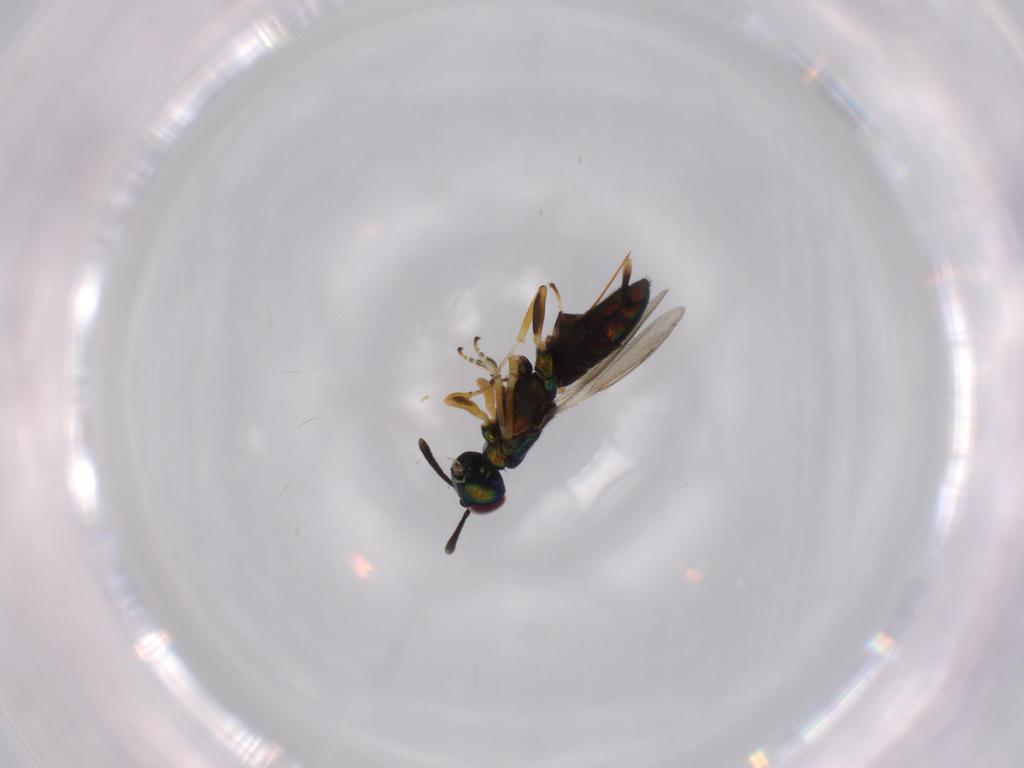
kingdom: Animalia
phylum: Arthropoda
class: Insecta
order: Hymenoptera
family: Eupelmidae
